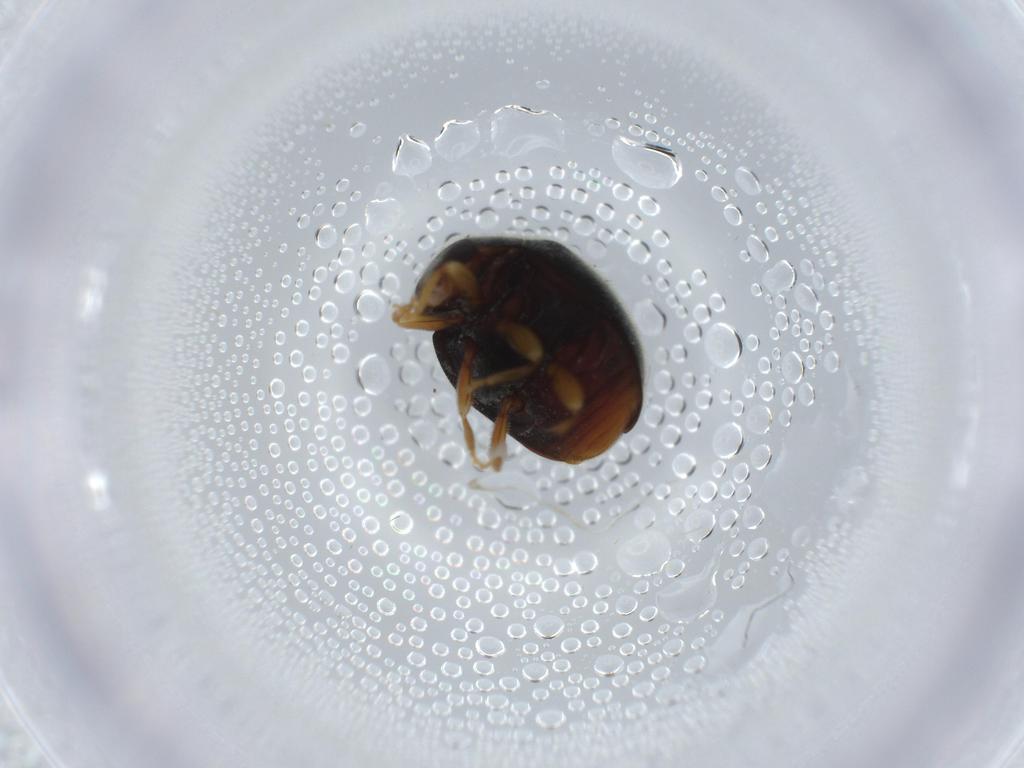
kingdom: Animalia
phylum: Arthropoda
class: Insecta
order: Coleoptera
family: Coccinellidae
